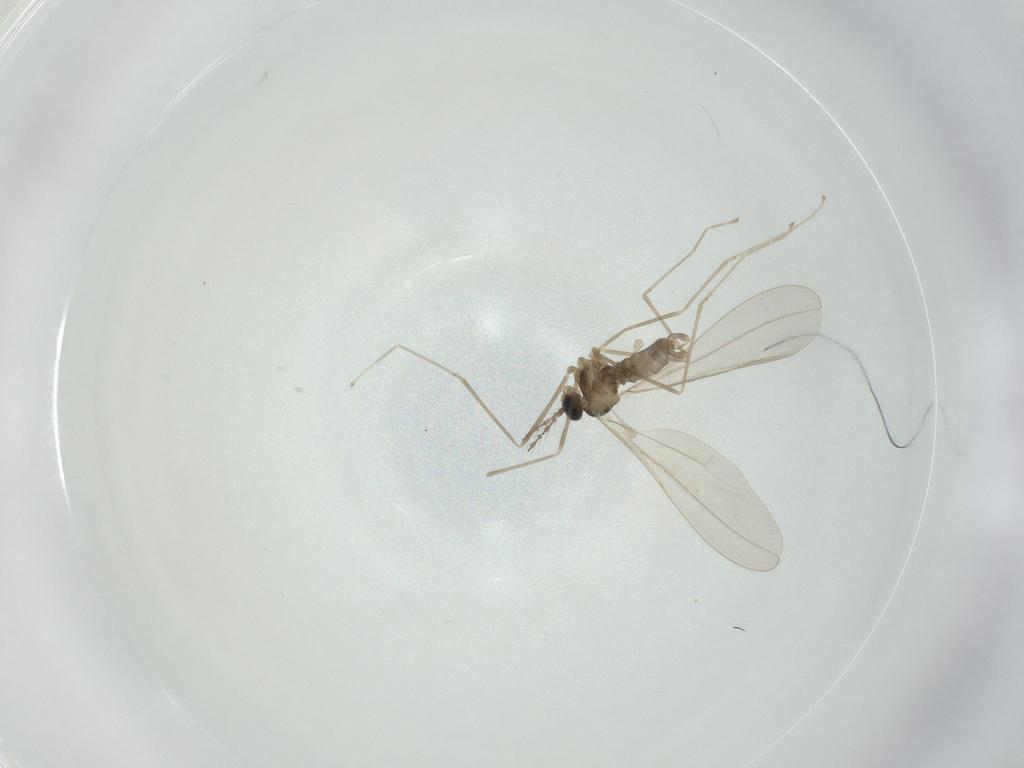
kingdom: Animalia
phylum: Arthropoda
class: Insecta
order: Diptera
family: Cecidomyiidae
